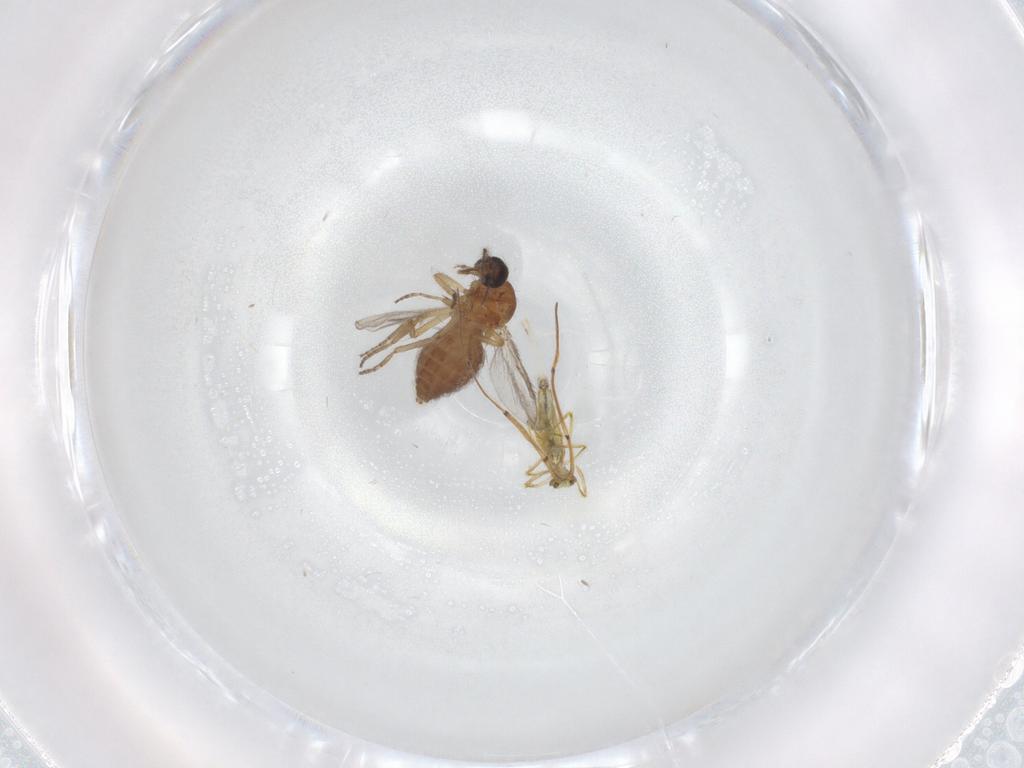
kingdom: Animalia
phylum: Arthropoda
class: Insecta
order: Diptera
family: Ceratopogonidae
